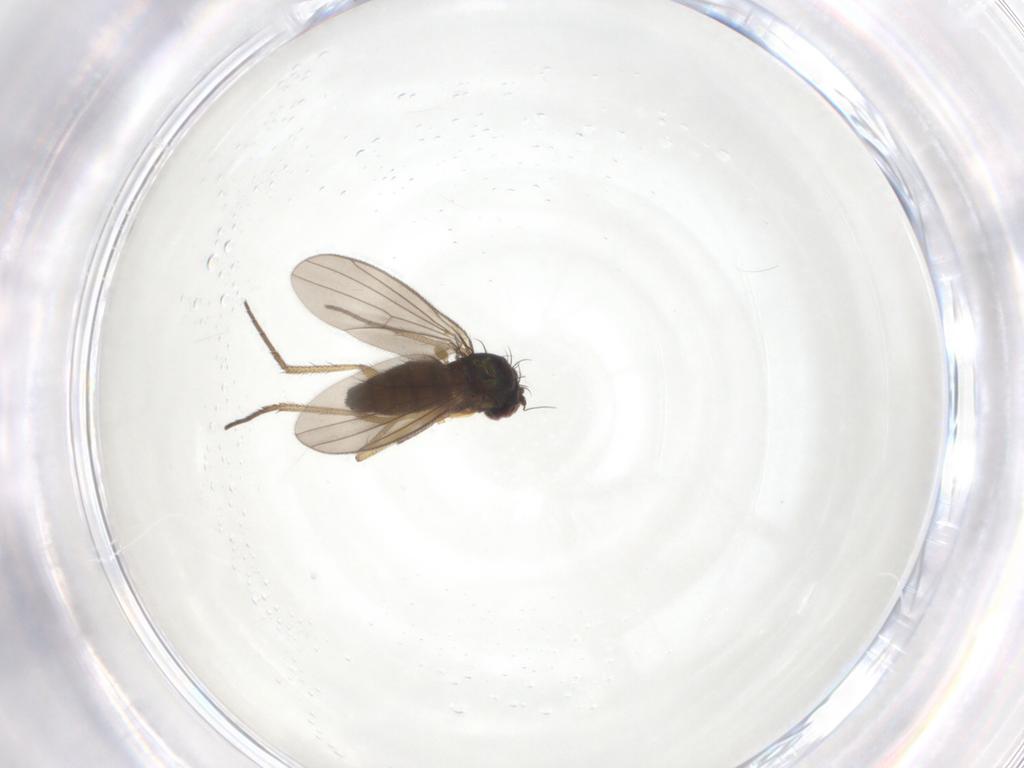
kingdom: Animalia
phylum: Arthropoda
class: Insecta
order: Diptera
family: Dolichopodidae
